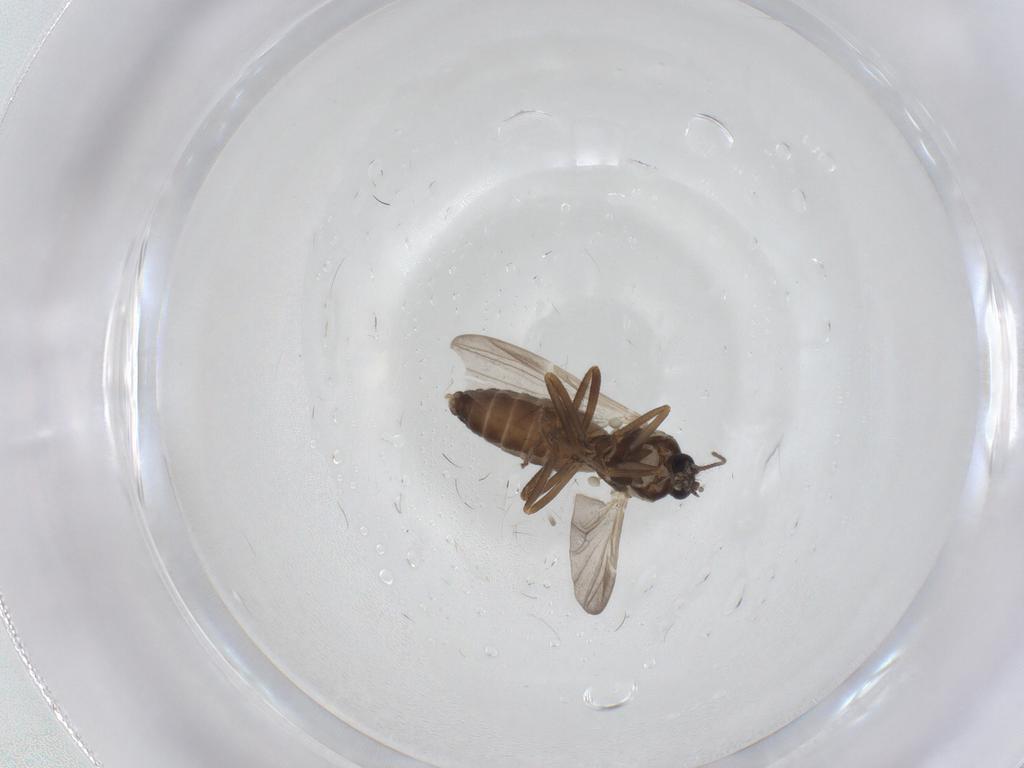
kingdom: Animalia
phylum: Arthropoda
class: Insecta
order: Diptera
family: Ceratopogonidae
